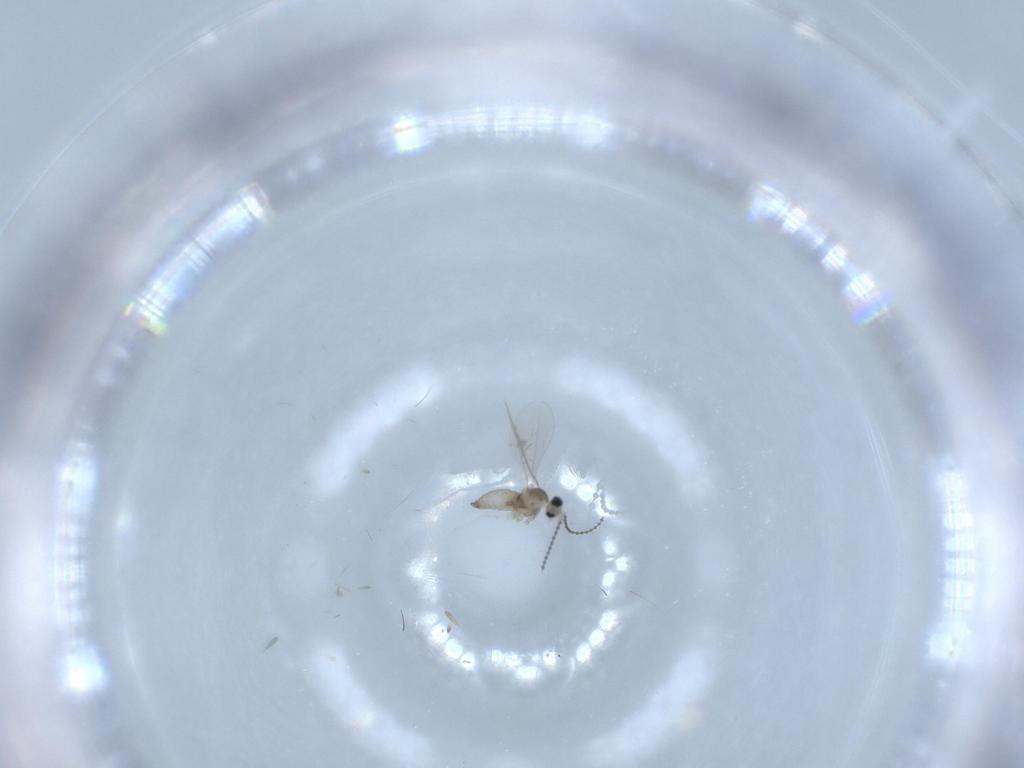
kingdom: Animalia
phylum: Arthropoda
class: Insecta
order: Diptera
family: Cecidomyiidae
